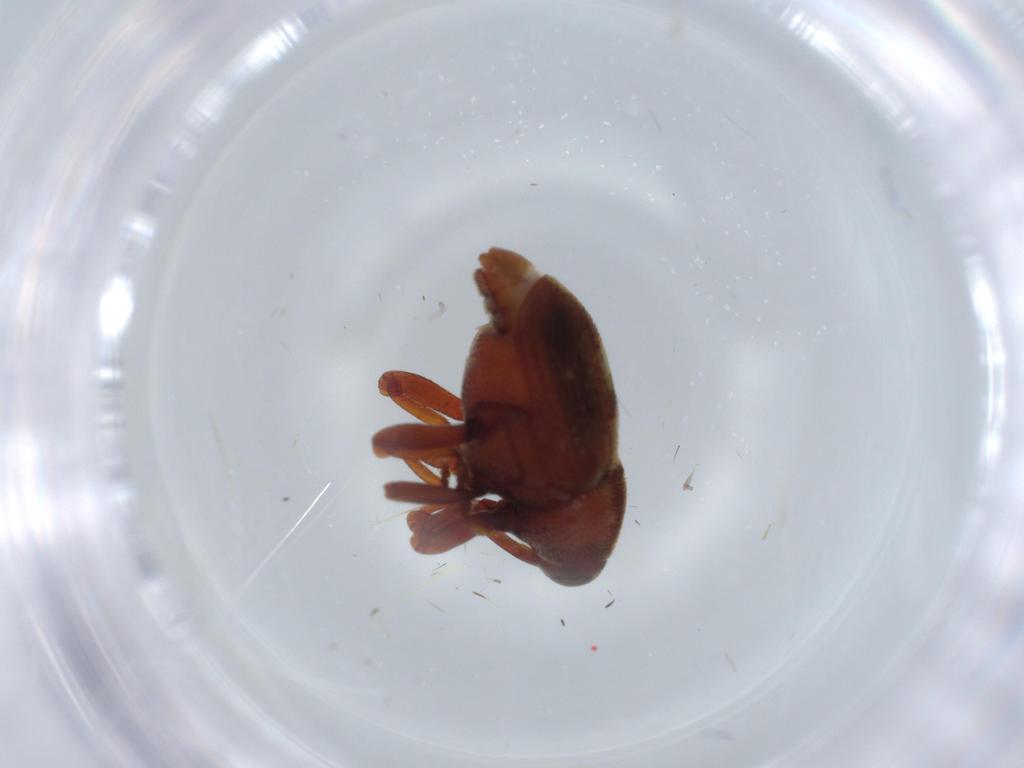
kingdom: Animalia
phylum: Arthropoda
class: Insecta
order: Coleoptera
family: Curculionidae
